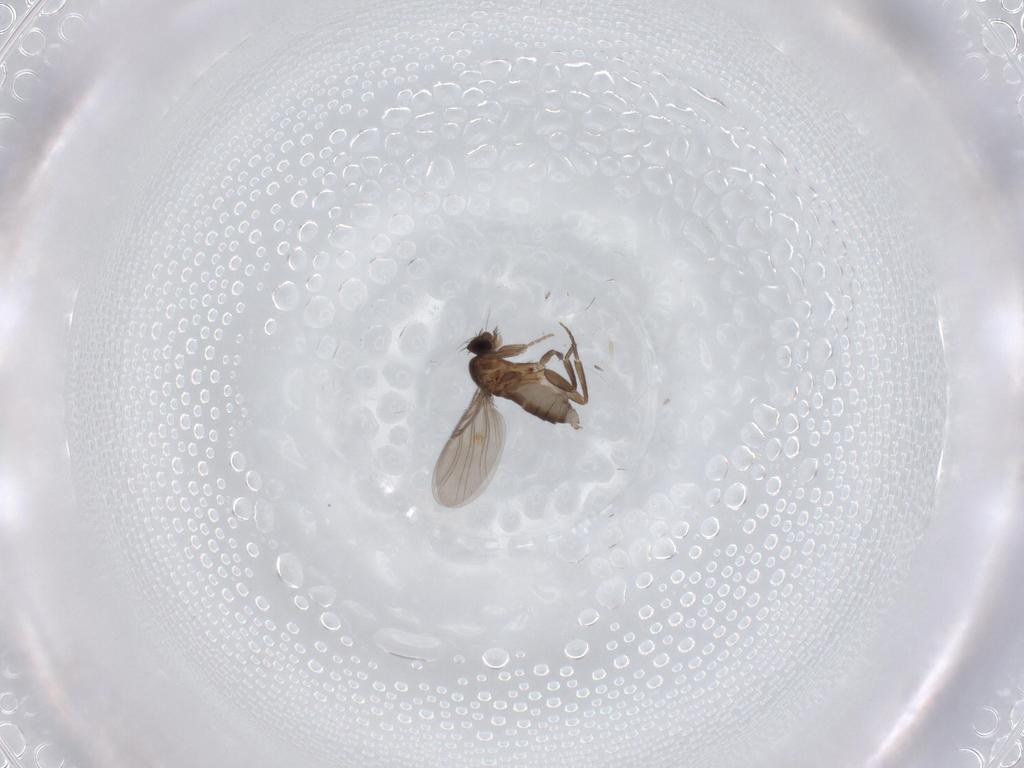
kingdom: Animalia
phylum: Arthropoda
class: Insecta
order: Diptera
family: Phoridae
